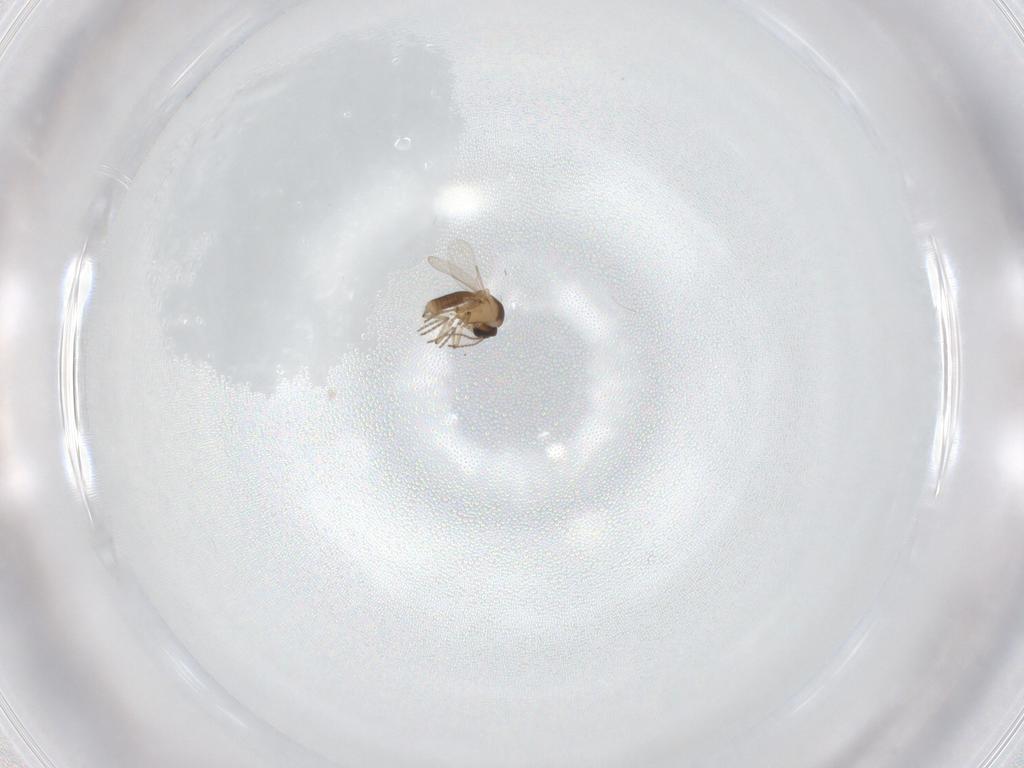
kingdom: Animalia
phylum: Arthropoda
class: Insecta
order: Diptera
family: Ceratopogonidae
